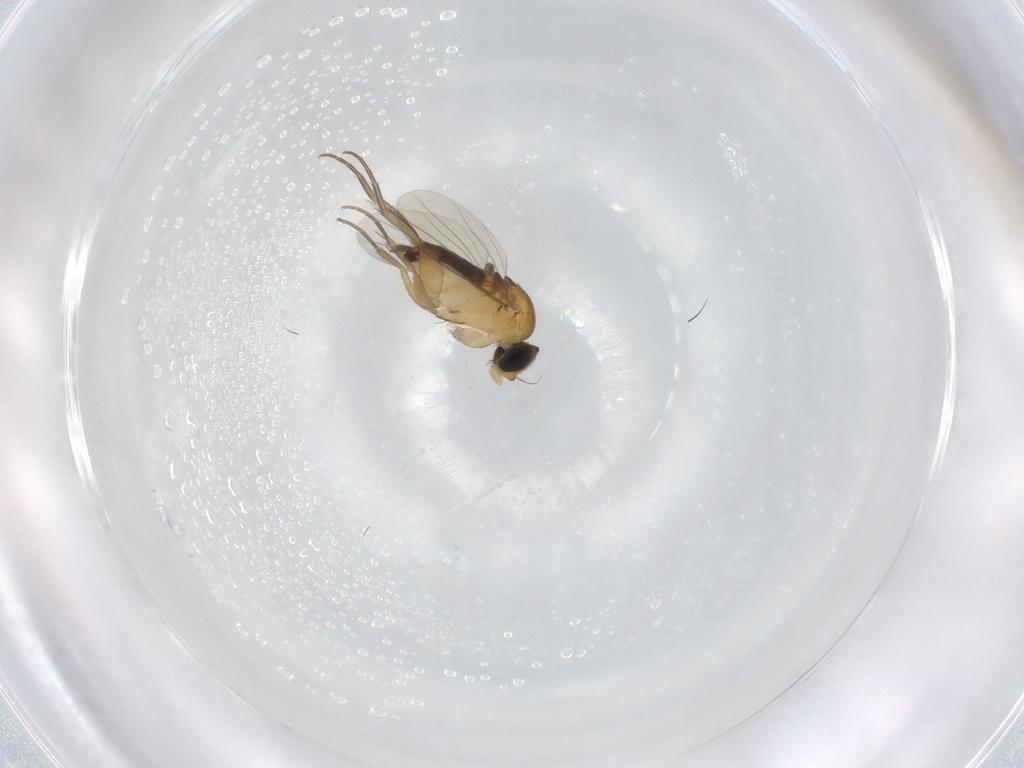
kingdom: Animalia
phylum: Arthropoda
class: Insecta
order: Diptera
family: Phoridae
